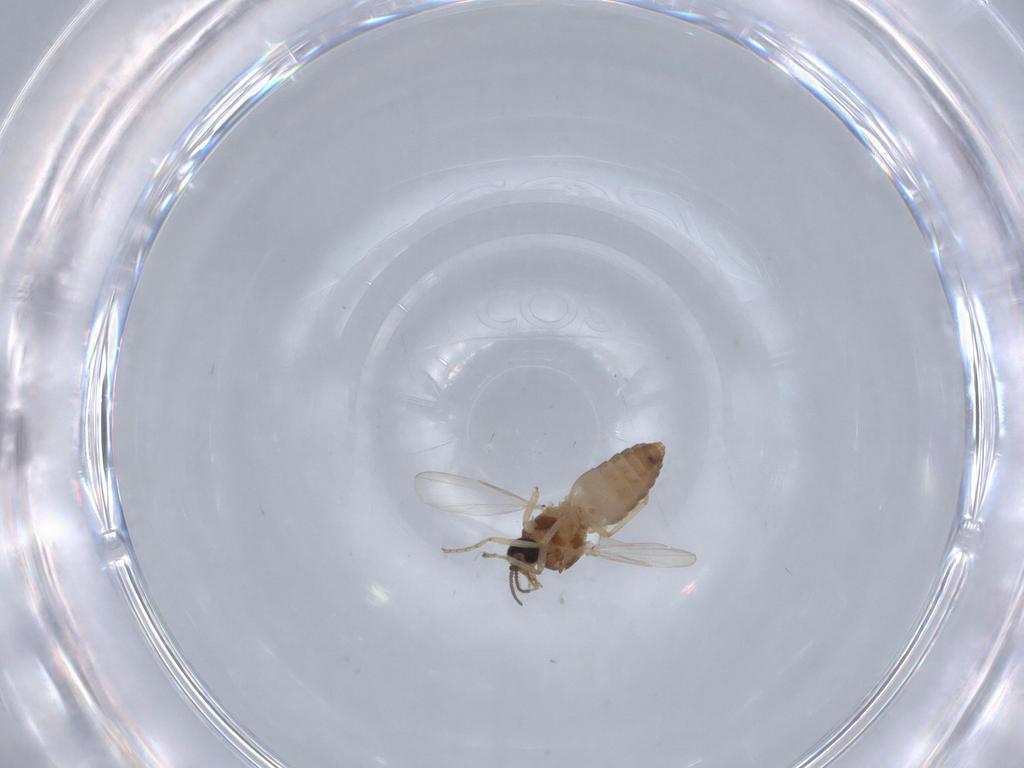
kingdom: Animalia
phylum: Arthropoda
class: Insecta
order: Diptera
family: Ceratopogonidae
